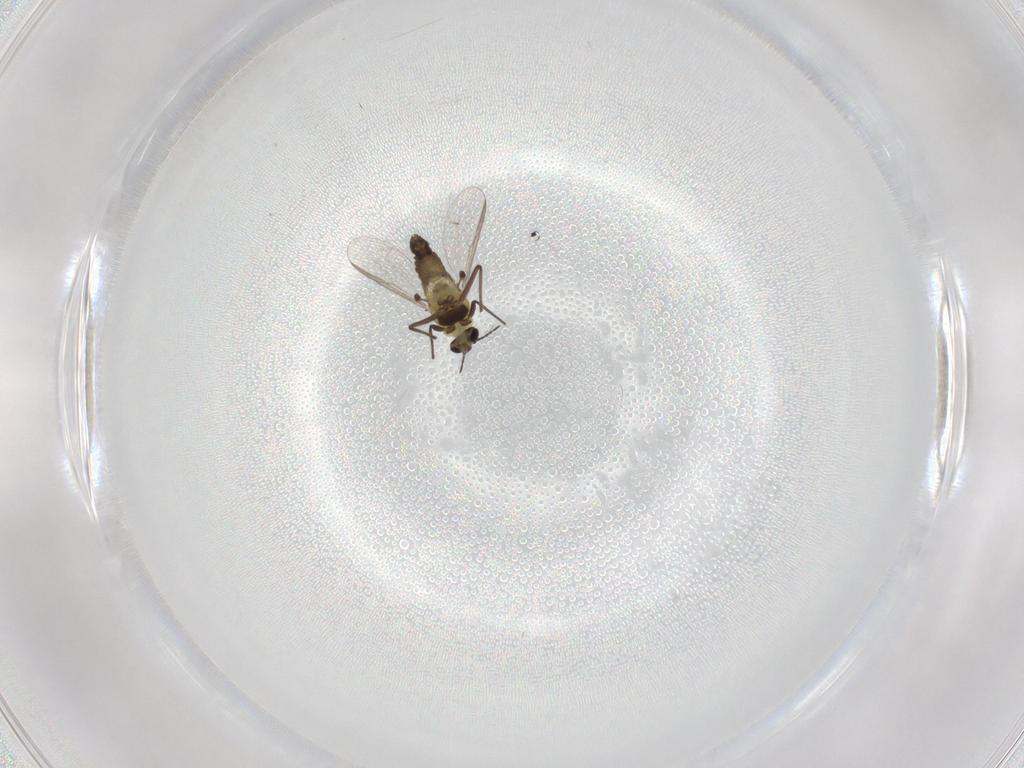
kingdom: Animalia
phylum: Arthropoda
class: Insecta
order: Diptera
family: Chironomidae
